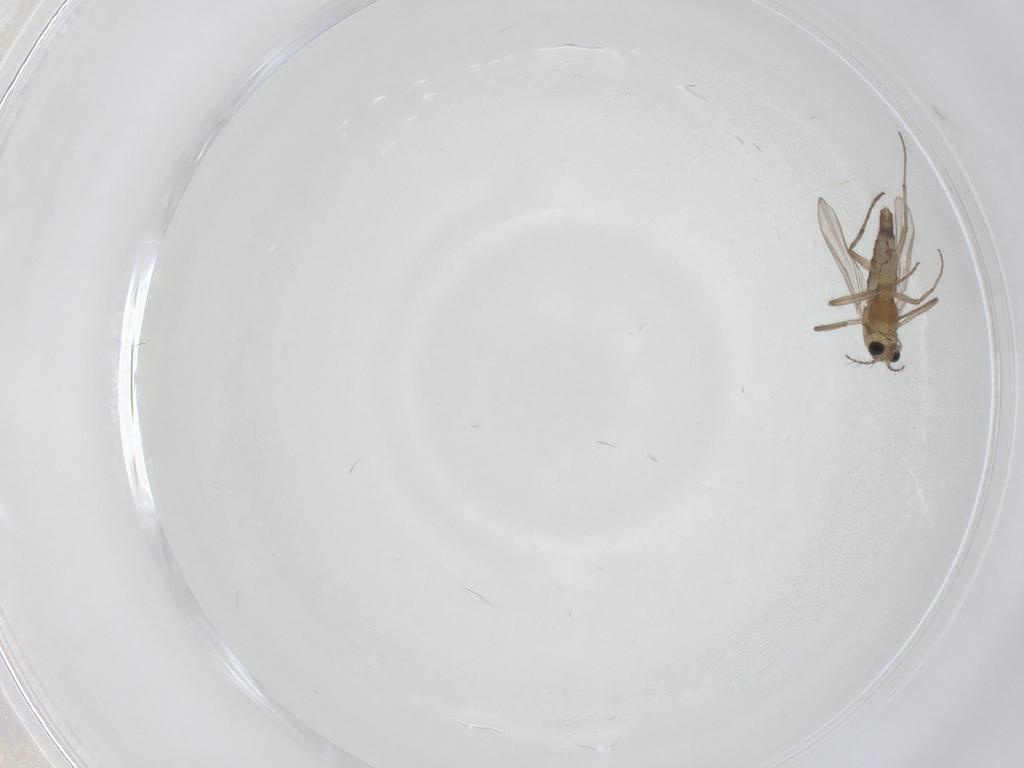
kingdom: Animalia
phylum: Arthropoda
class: Insecta
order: Diptera
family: Chironomidae
